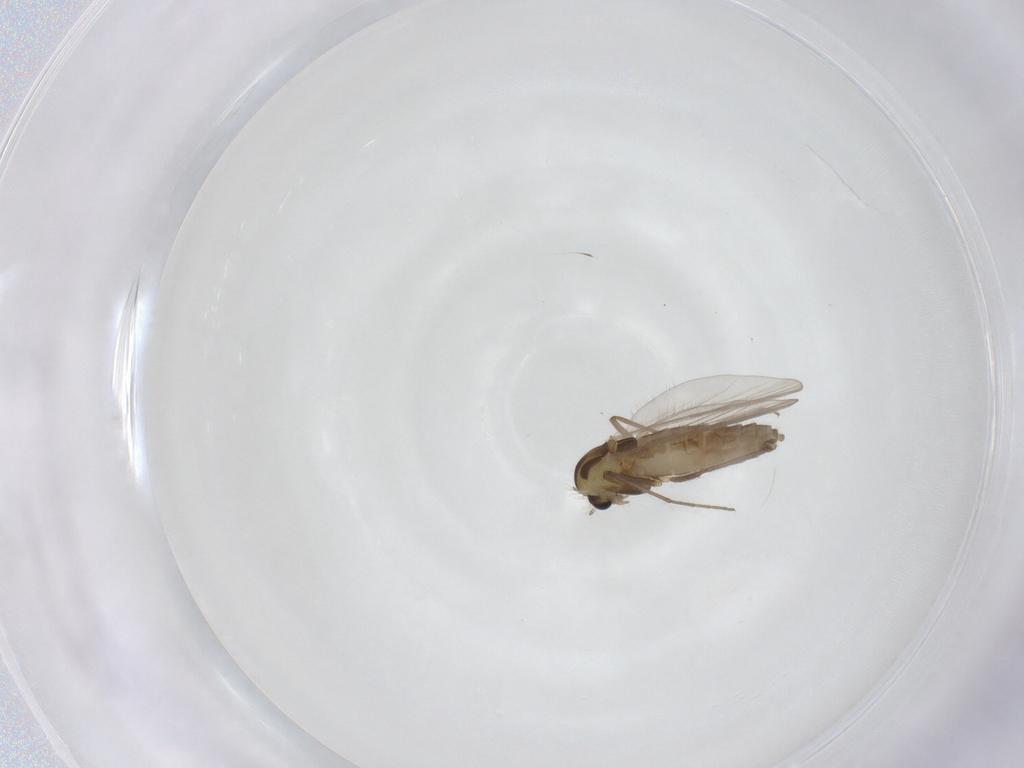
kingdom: Animalia
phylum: Arthropoda
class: Insecta
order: Diptera
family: Chironomidae
